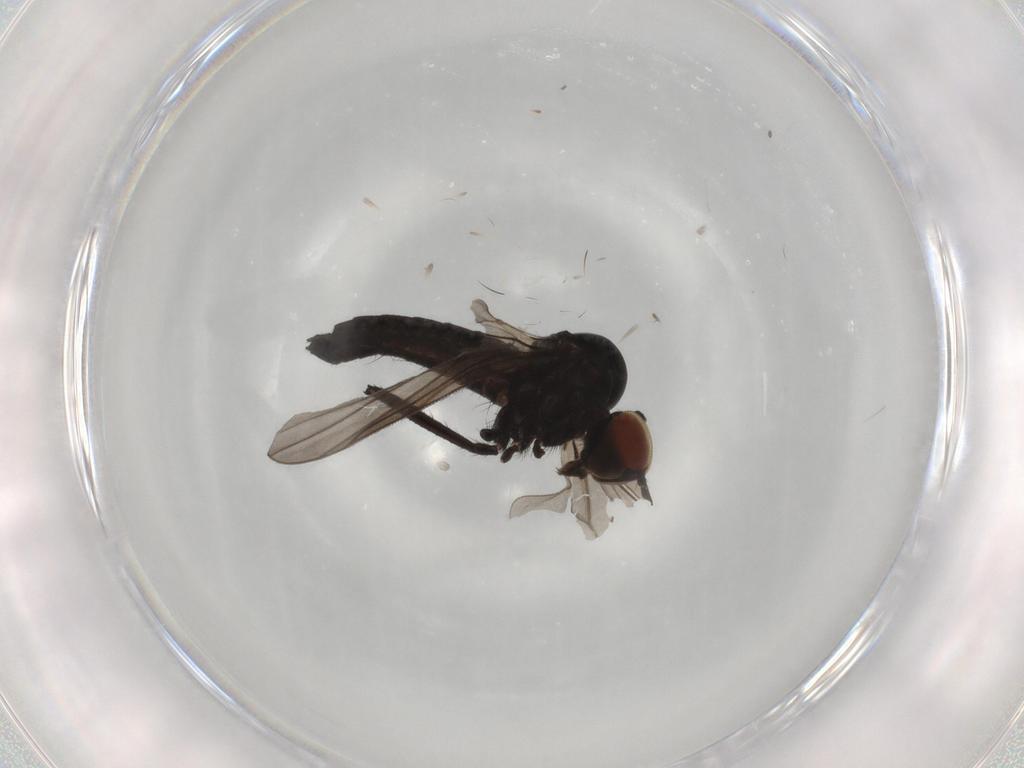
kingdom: Animalia
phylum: Arthropoda
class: Insecta
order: Diptera
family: Hybotidae
